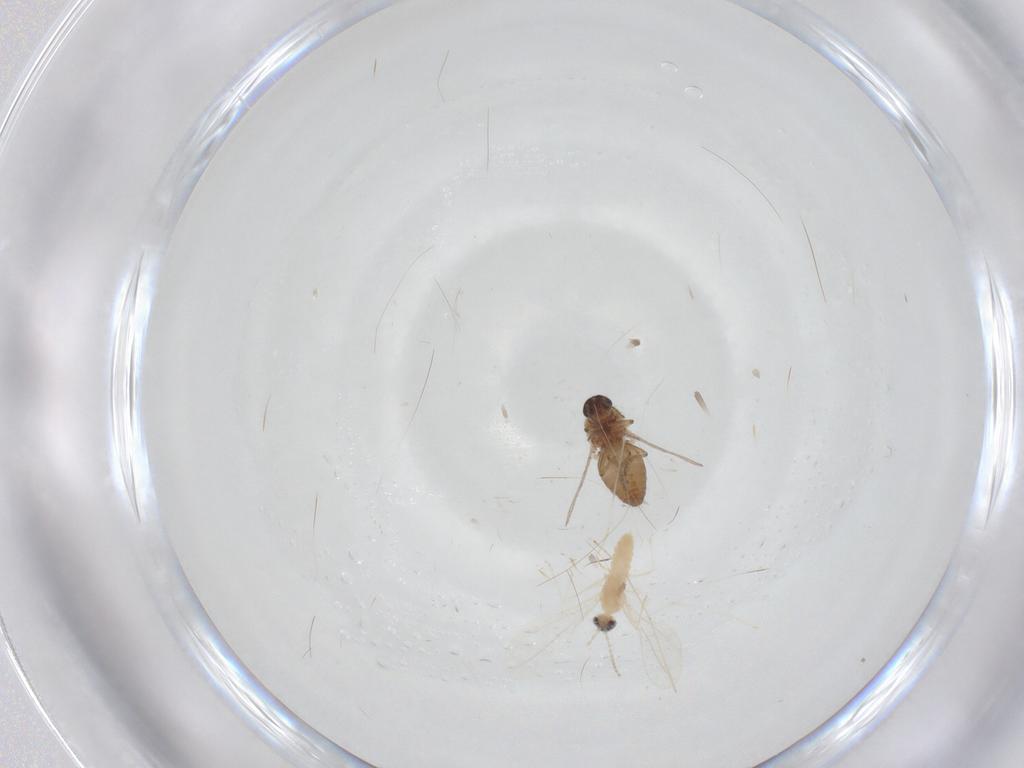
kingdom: Animalia
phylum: Arthropoda
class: Insecta
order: Diptera
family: Cecidomyiidae
